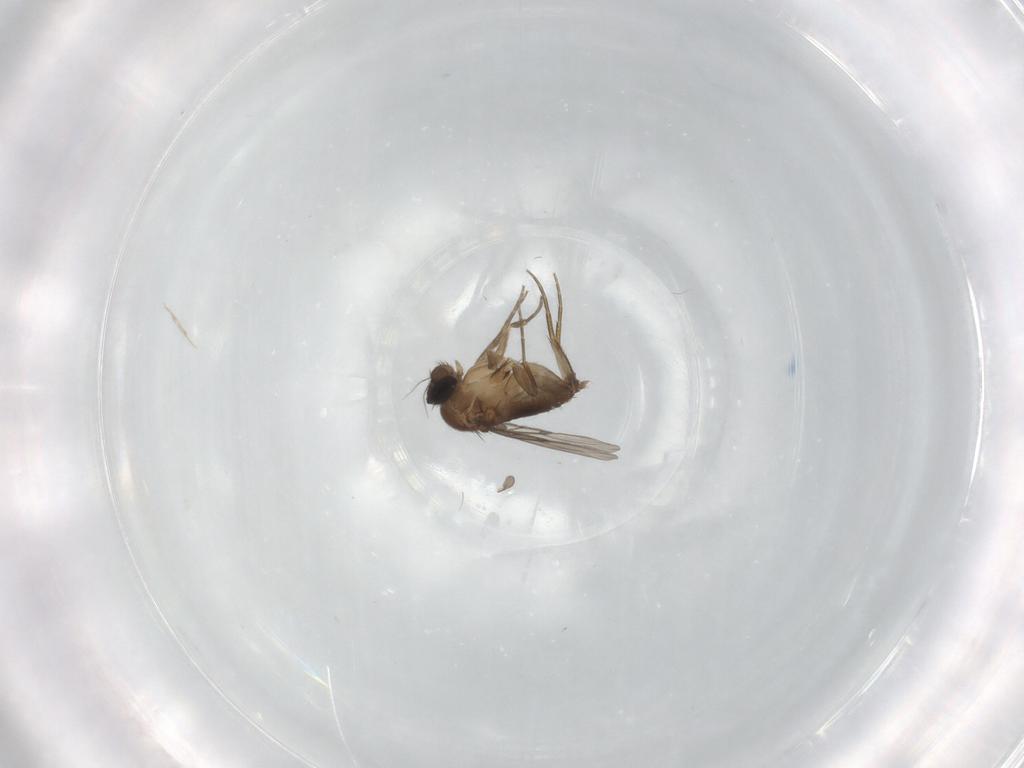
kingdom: Animalia
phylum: Arthropoda
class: Insecta
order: Diptera
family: Phoridae
